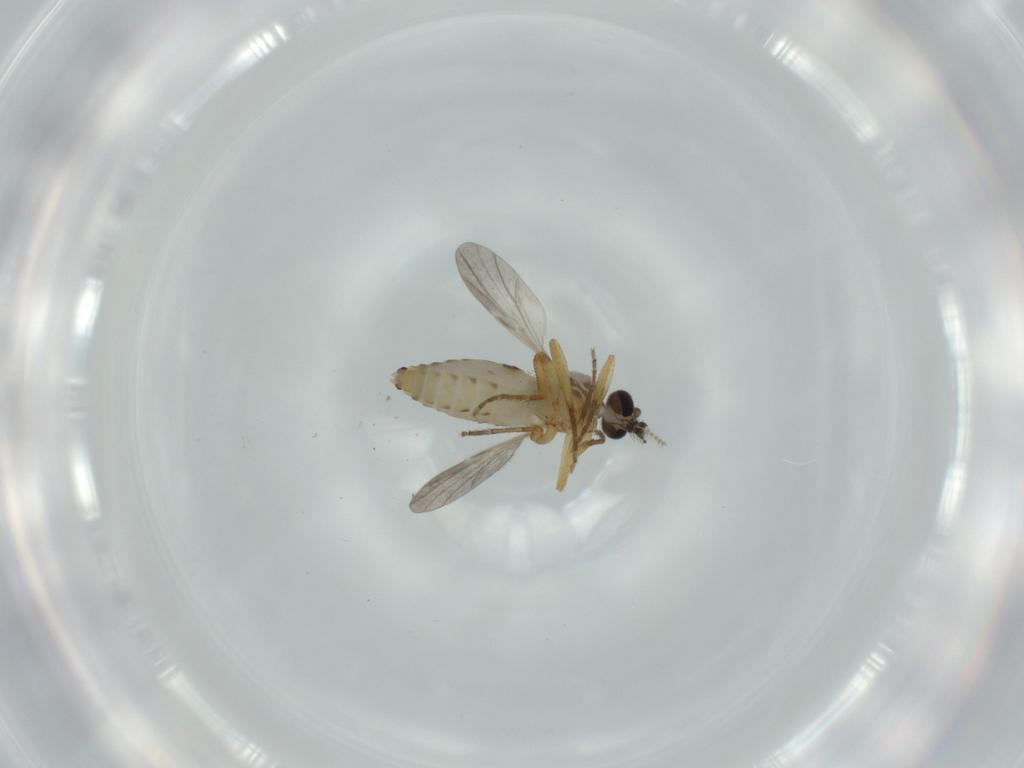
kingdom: Animalia
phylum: Arthropoda
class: Insecta
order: Diptera
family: Ceratopogonidae
